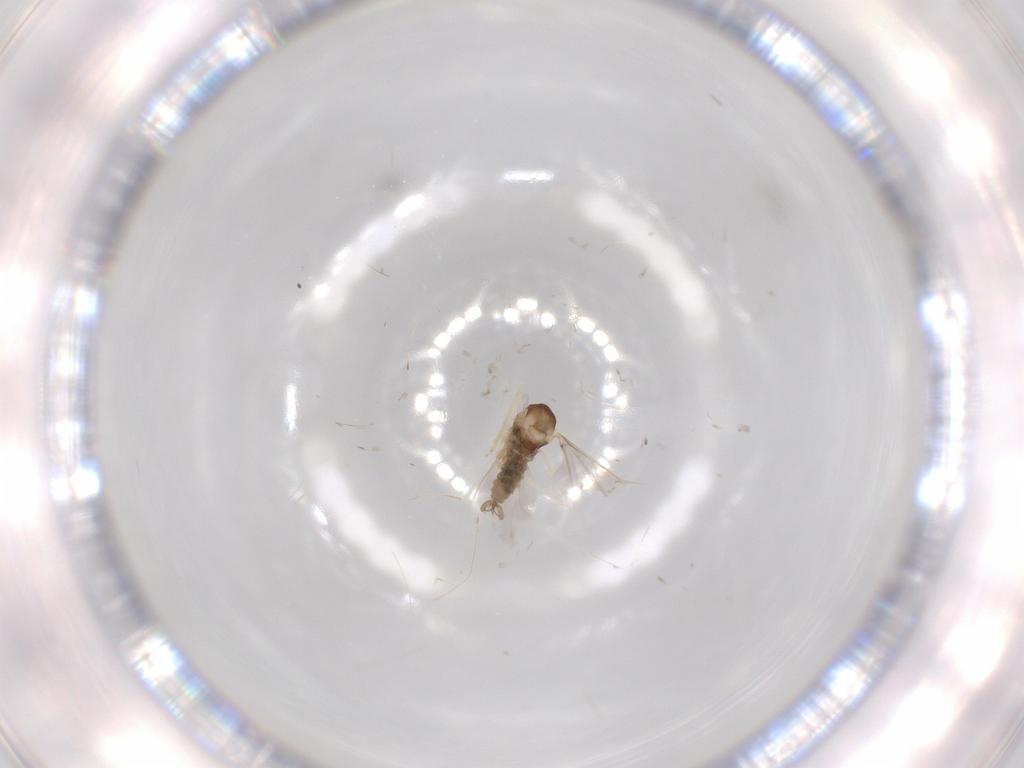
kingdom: Animalia
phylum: Arthropoda
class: Insecta
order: Diptera
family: Cecidomyiidae
